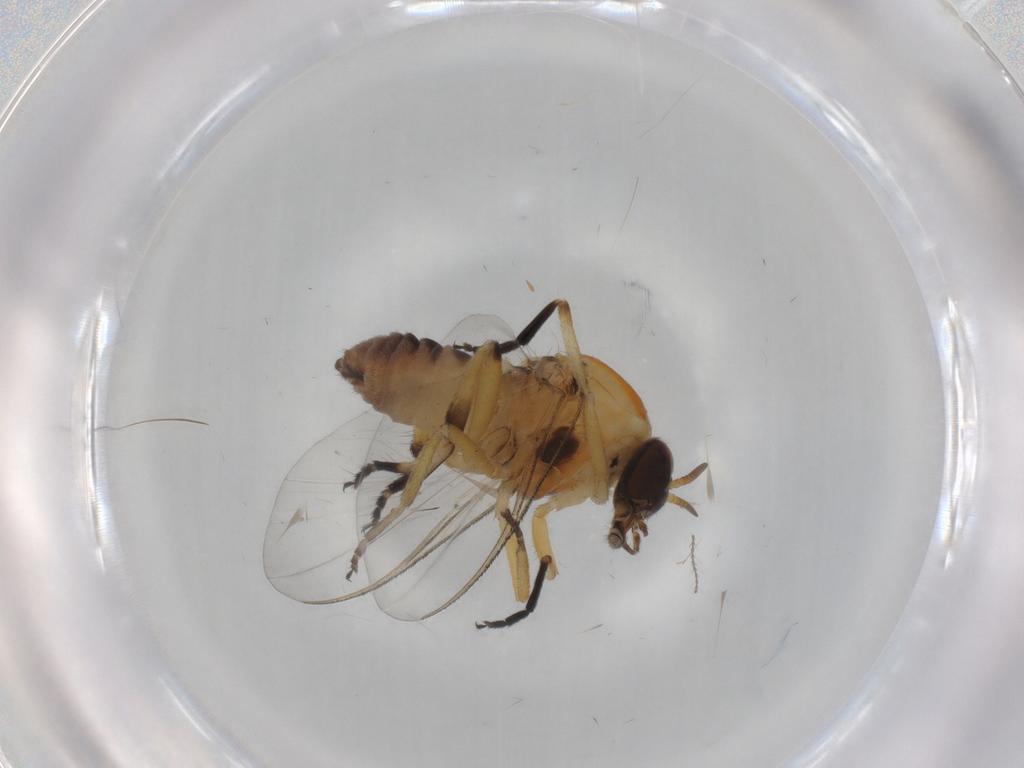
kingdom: Animalia
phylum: Arthropoda
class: Insecta
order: Diptera
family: Simuliidae
